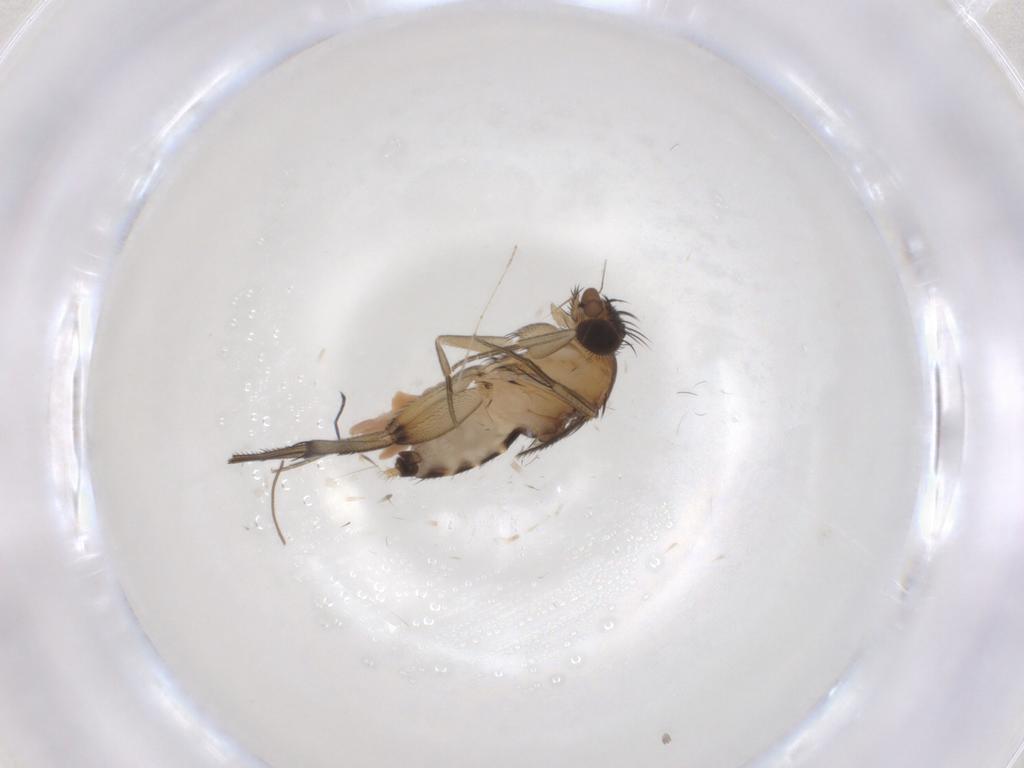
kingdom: Animalia
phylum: Arthropoda
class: Insecta
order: Diptera
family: Phoridae
